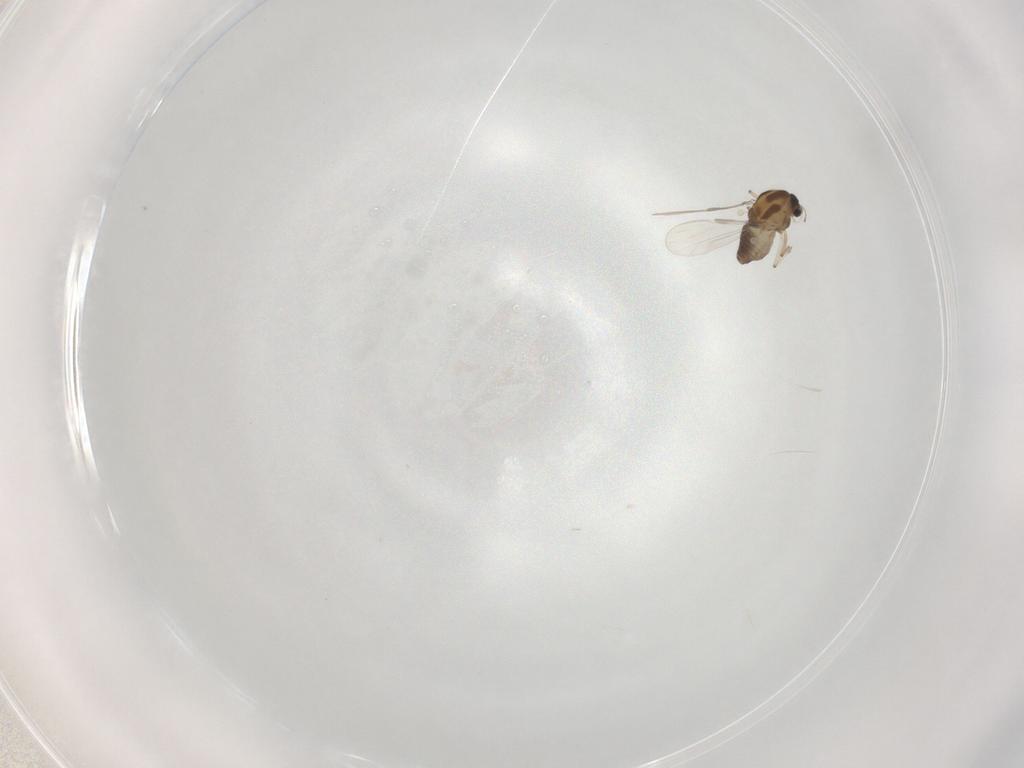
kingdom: Animalia
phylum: Arthropoda
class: Insecta
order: Diptera
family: Chironomidae
